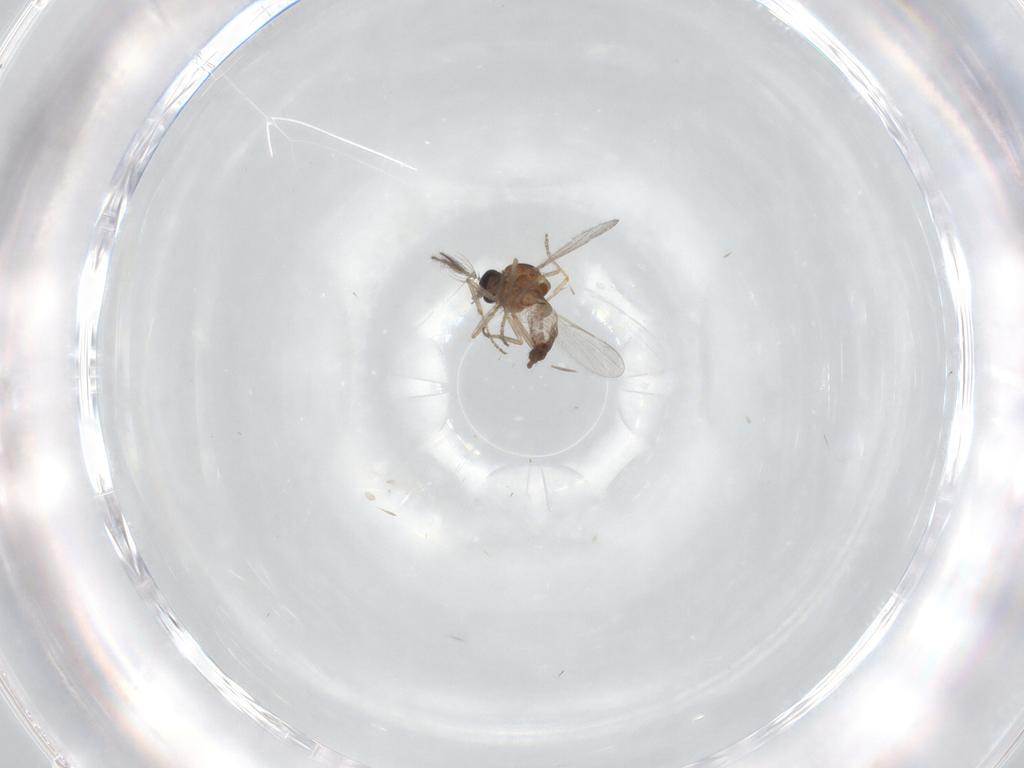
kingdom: Animalia
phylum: Arthropoda
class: Insecta
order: Diptera
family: Ceratopogonidae
